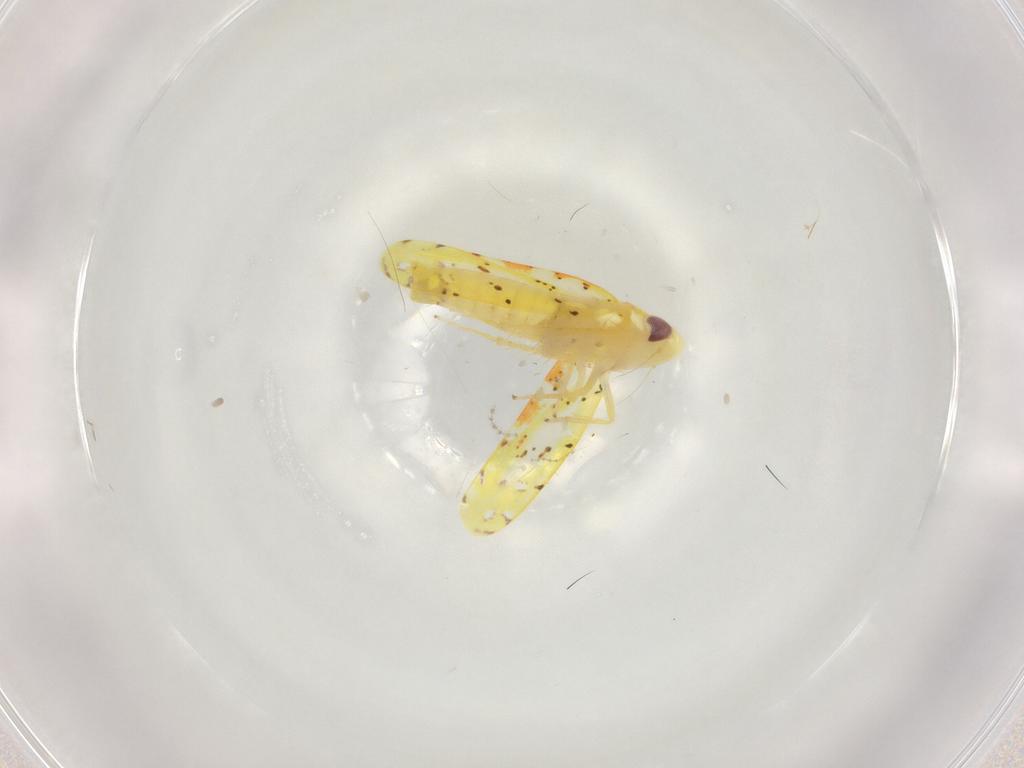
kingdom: Animalia
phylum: Arthropoda
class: Insecta
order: Hemiptera
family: Cicadellidae
